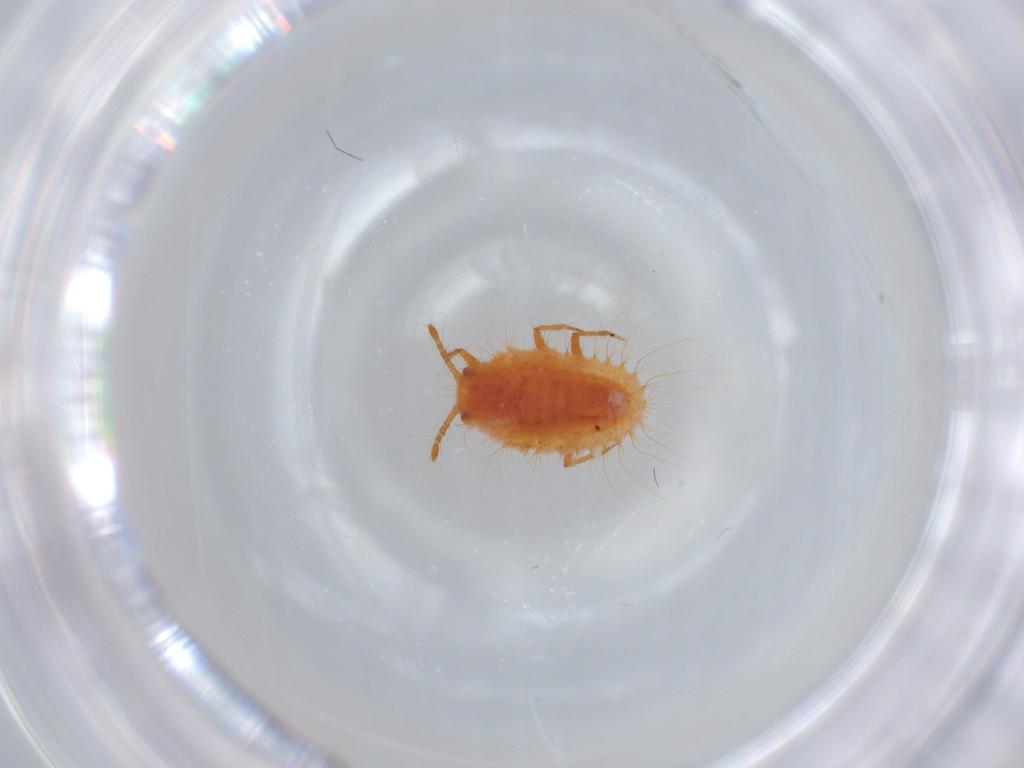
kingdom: Animalia
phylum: Arthropoda
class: Insecta
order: Hemiptera
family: Coccoidea_incertae_sedis
